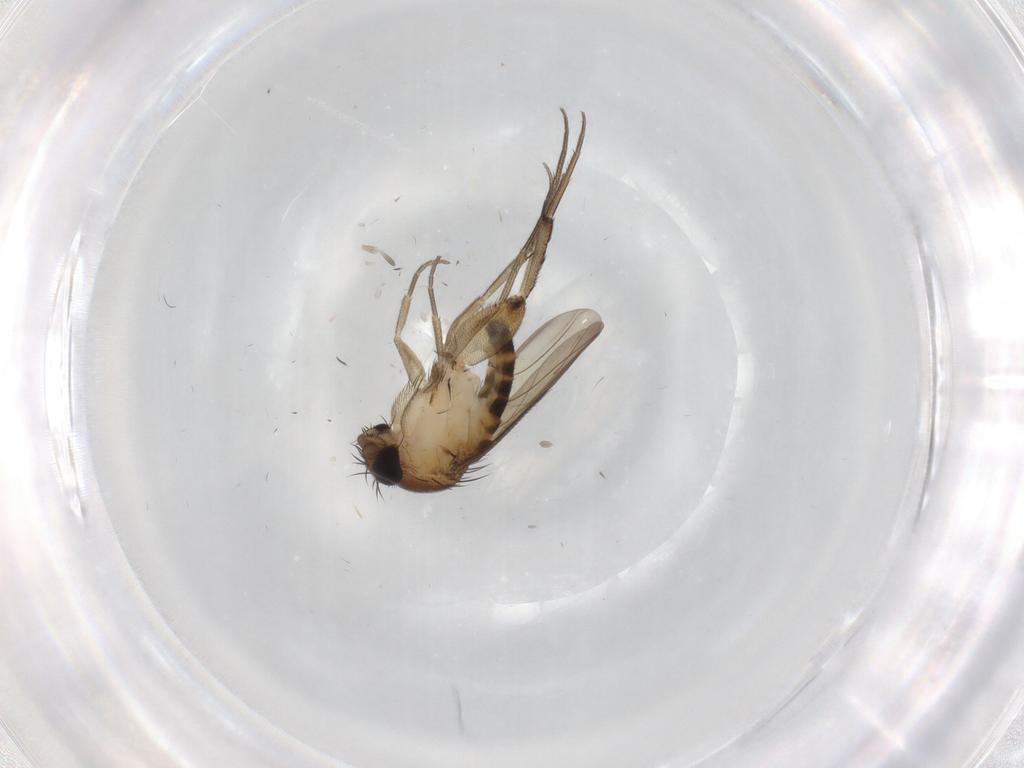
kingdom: Animalia
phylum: Arthropoda
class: Insecta
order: Diptera
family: Phoridae
